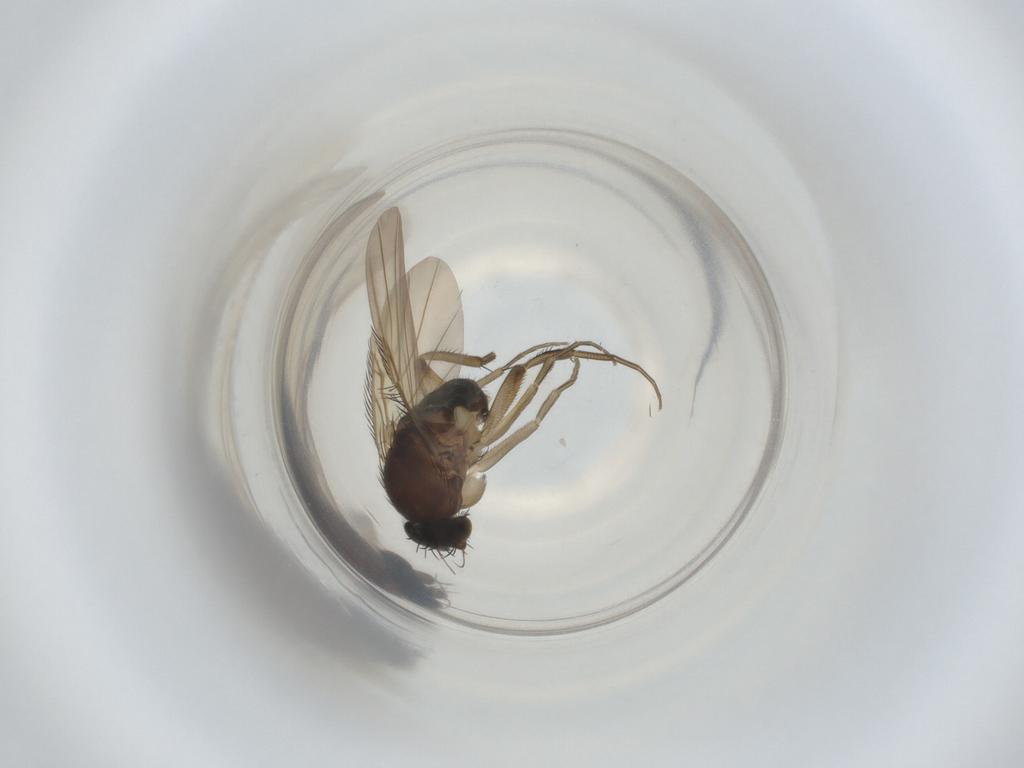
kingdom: Animalia
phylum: Arthropoda
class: Insecta
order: Diptera
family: Phoridae
